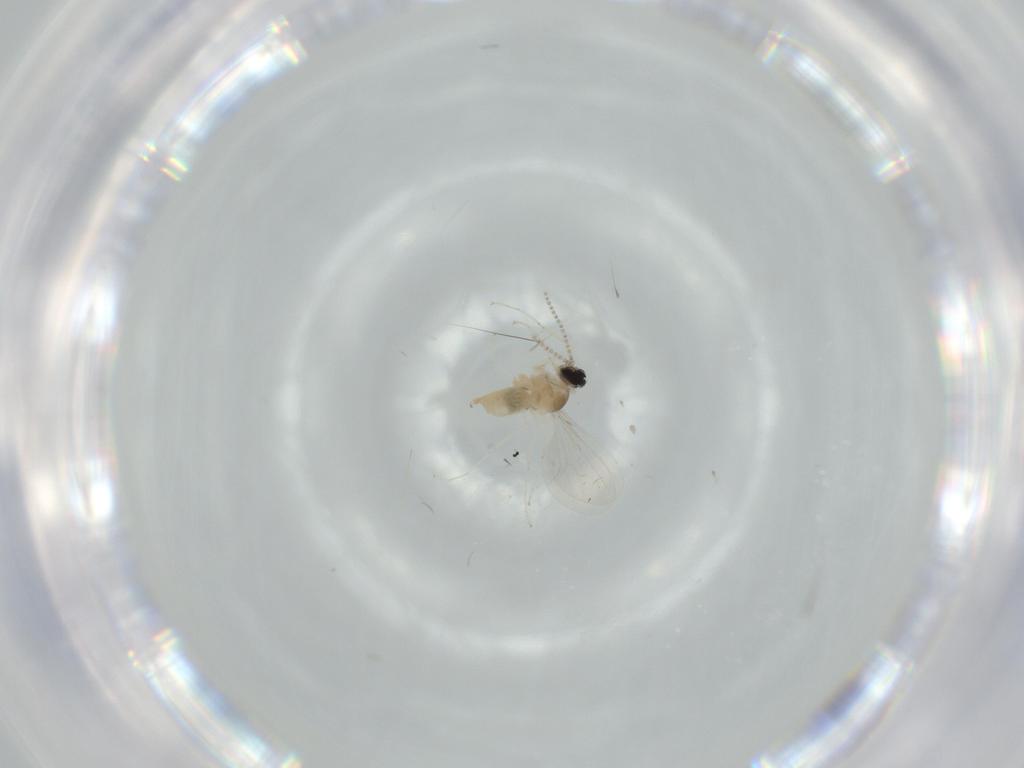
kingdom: Animalia
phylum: Arthropoda
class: Insecta
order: Diptera
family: Cecidomyiidae
